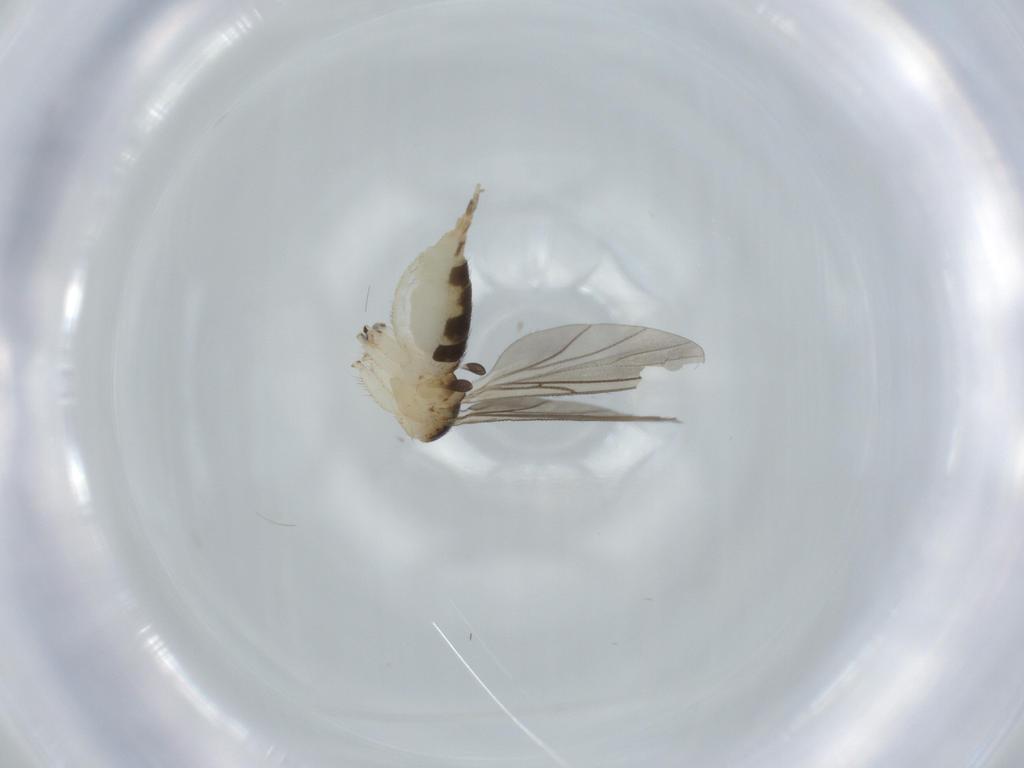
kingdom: Animalia
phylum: Arthropoda
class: Insecta
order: Diptera
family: Sciaridae
